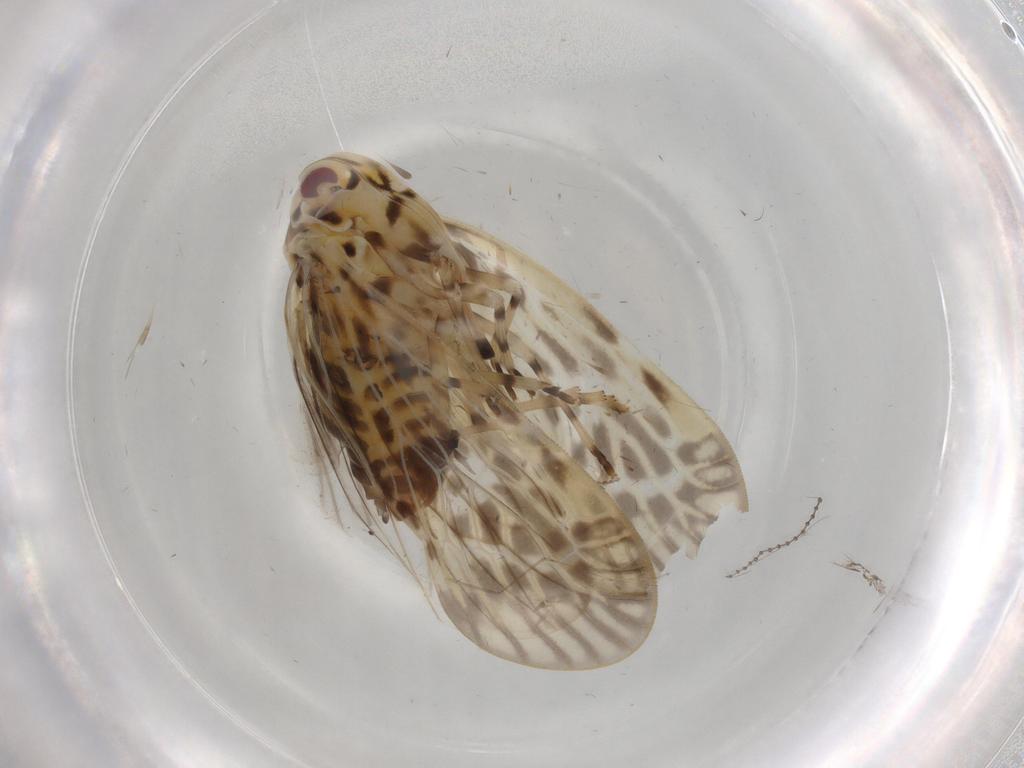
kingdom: Animalia
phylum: Arthropoda
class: Insecta
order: Hemiptera
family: Derbidae
